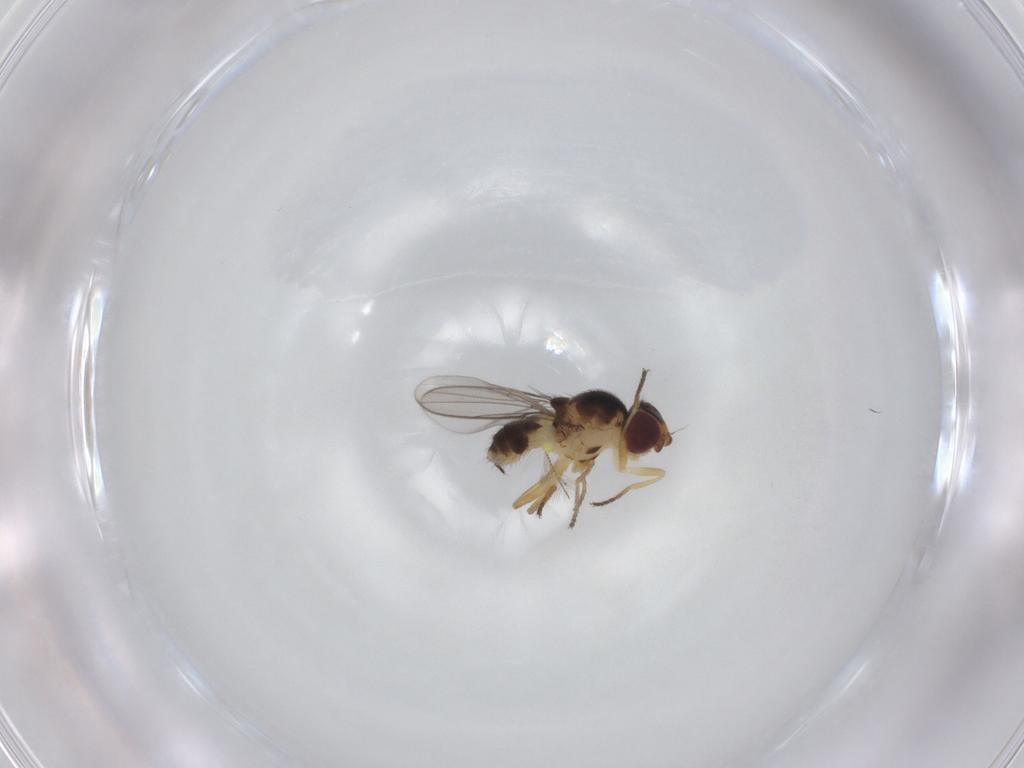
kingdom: Animalia
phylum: Arthropoda
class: Insecta
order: Diptera
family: Chloropidae
